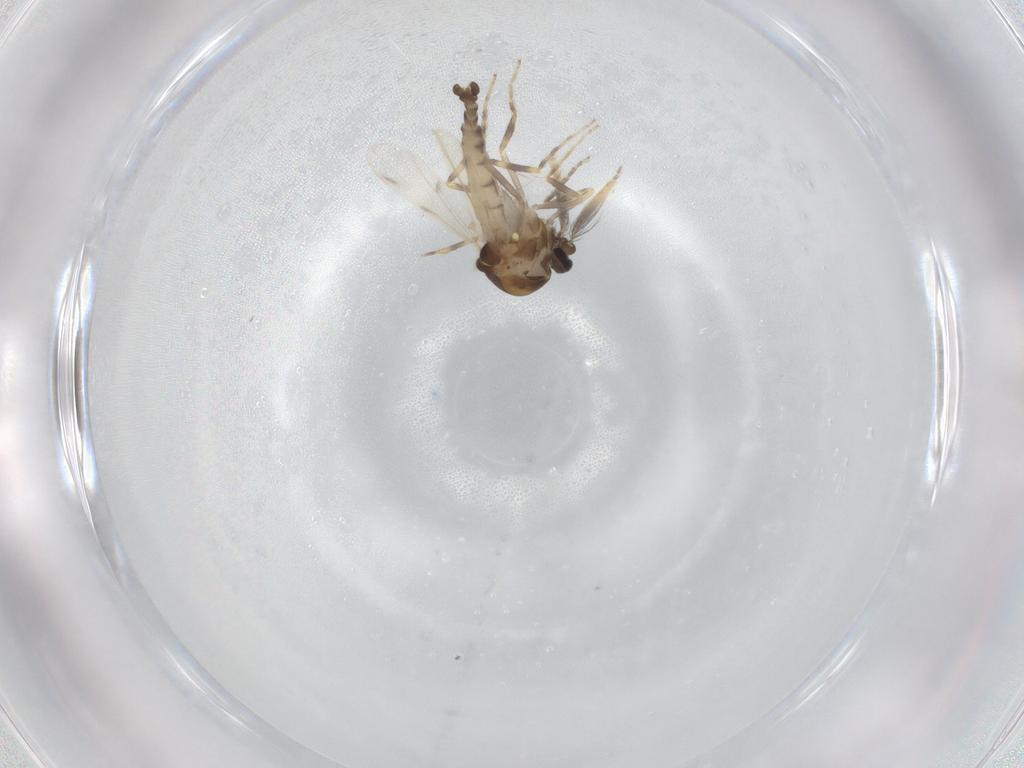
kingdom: Animalia
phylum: Arthropoda
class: Insecta
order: Diptera
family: Ceratopogonidae
